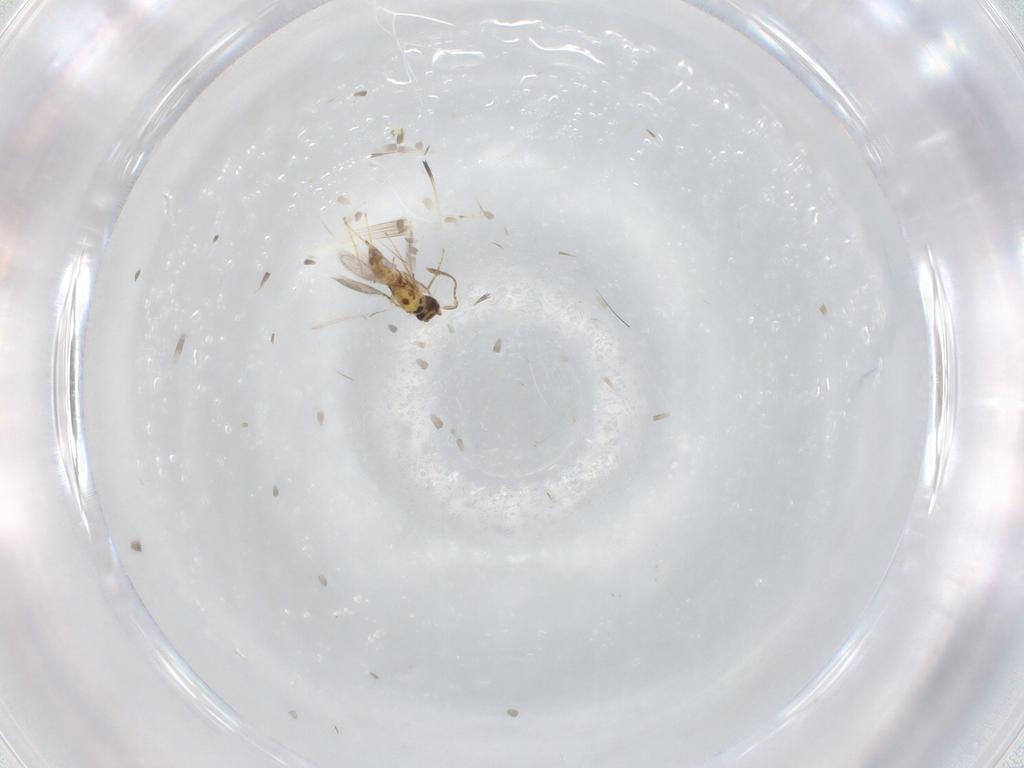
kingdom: Animalia
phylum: Arthropoda
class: Insecta
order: Hymenoptera
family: Mymaridae
